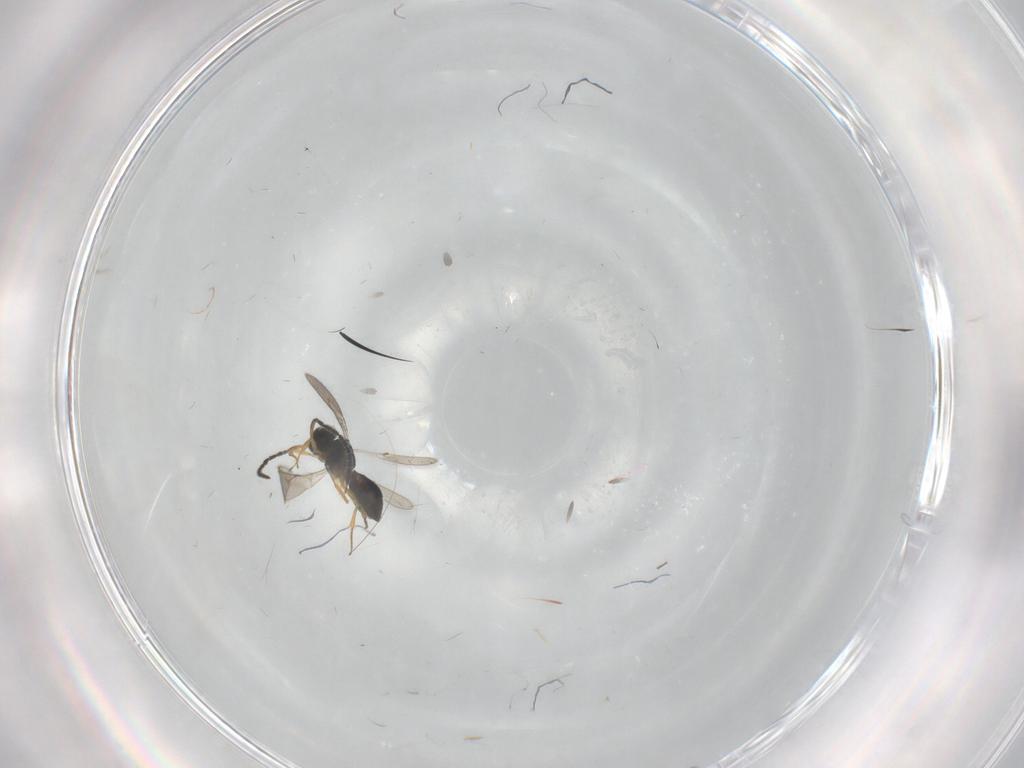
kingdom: Animalia
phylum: Arthropoda
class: Insecta
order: Hymenoptera
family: Scelionidae
